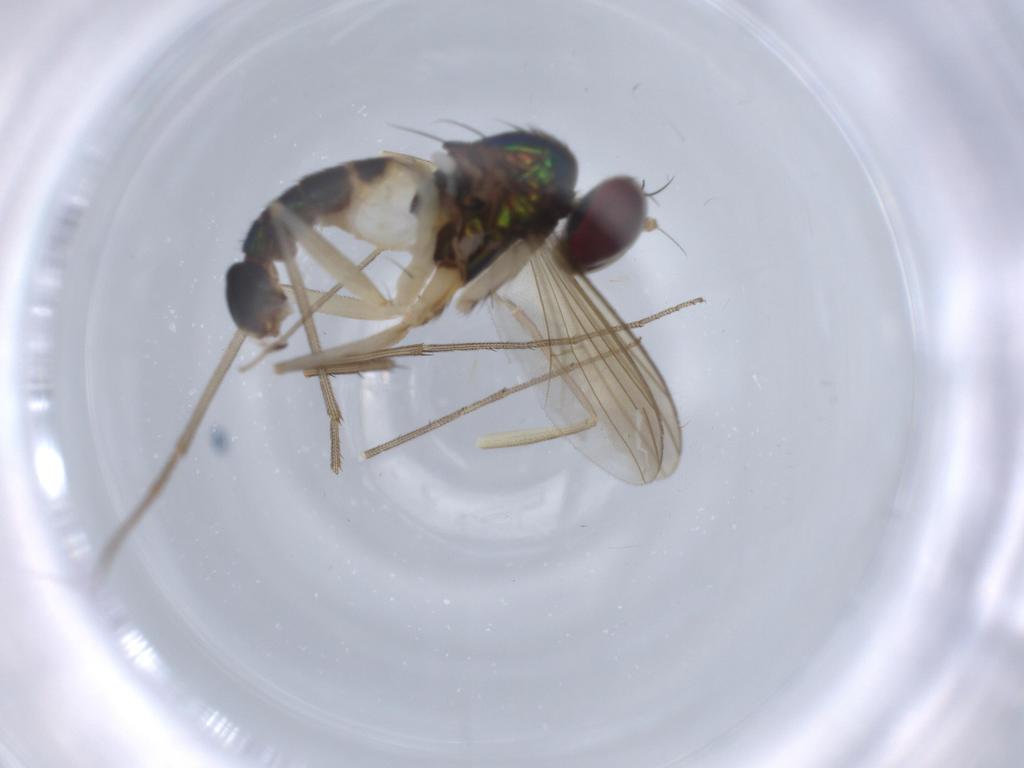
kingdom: Animalia
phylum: Arthropoda
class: Insecta
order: Diptera
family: Dolichopodidae
